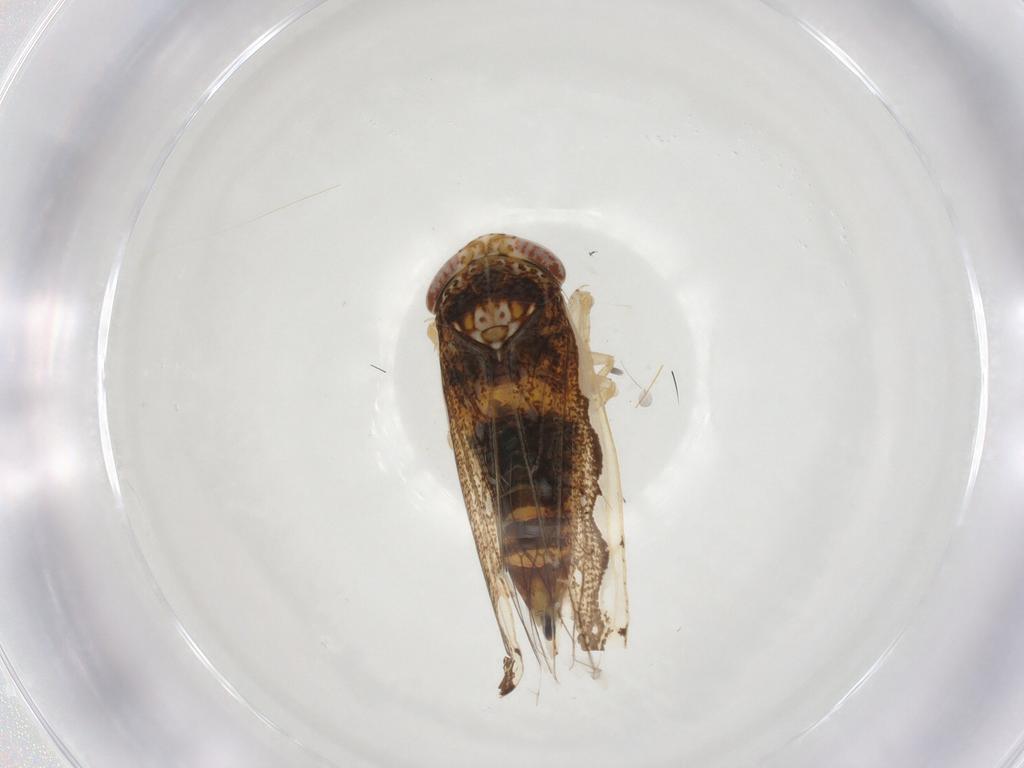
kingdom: Animalia
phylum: Arthropoda
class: Insecta
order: Hemiptera
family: Cicadellidae
